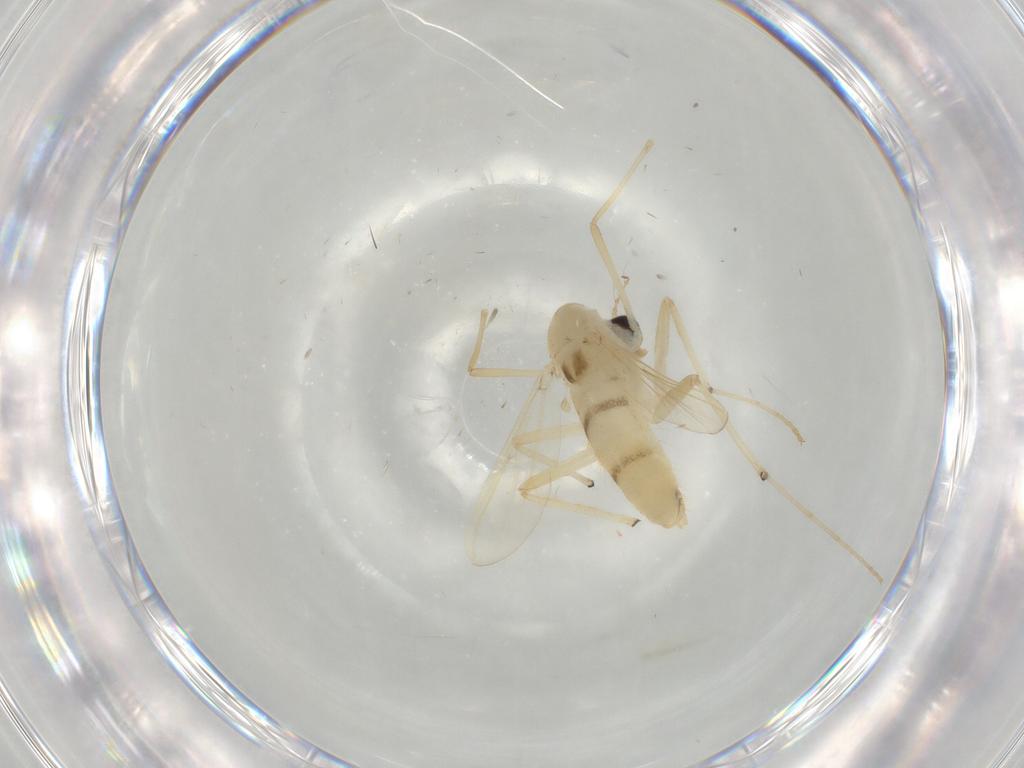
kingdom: Animalia
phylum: Arthropoda
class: Insecta
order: Diptera
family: Chironomidae
